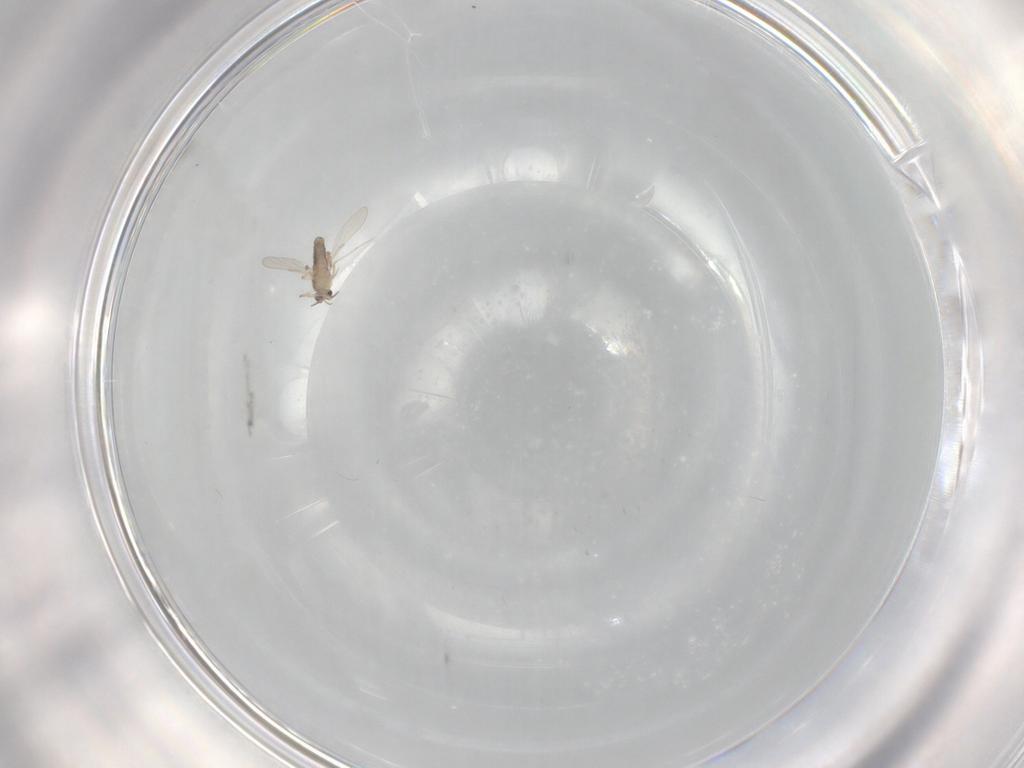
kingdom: Animalia
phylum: Arthropoda
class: Insecta
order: Diptera
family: Ceratopogonidae
